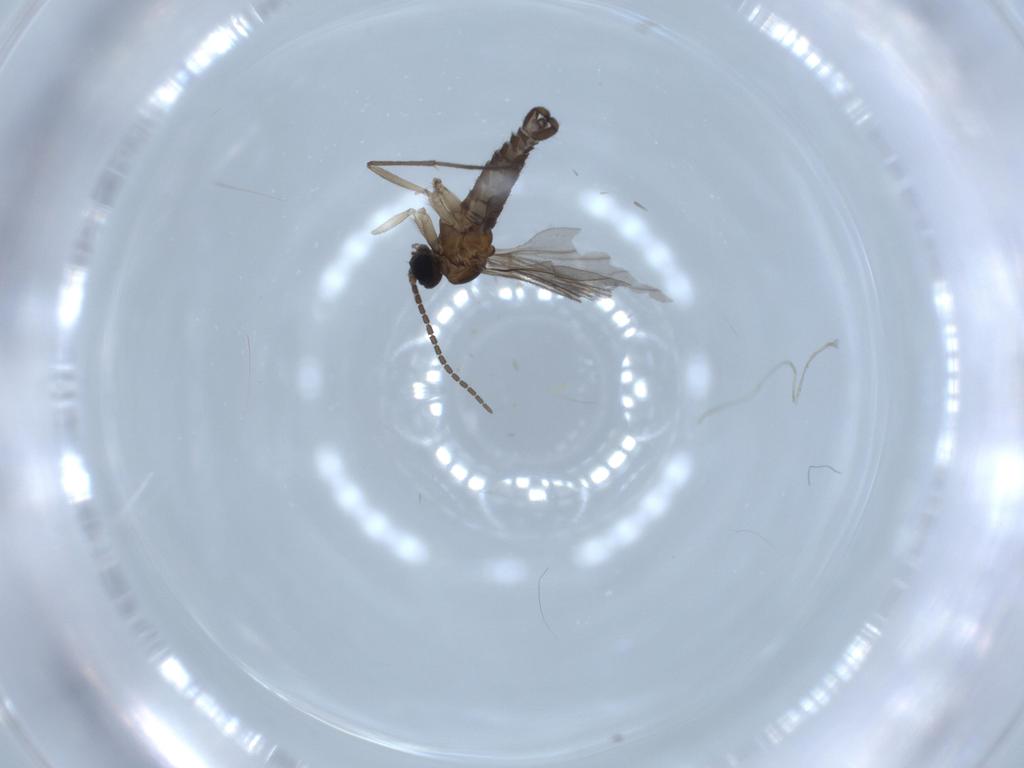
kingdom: Animalia
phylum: Arthropoda
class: Insecta
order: Diptera
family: Sciaridae
